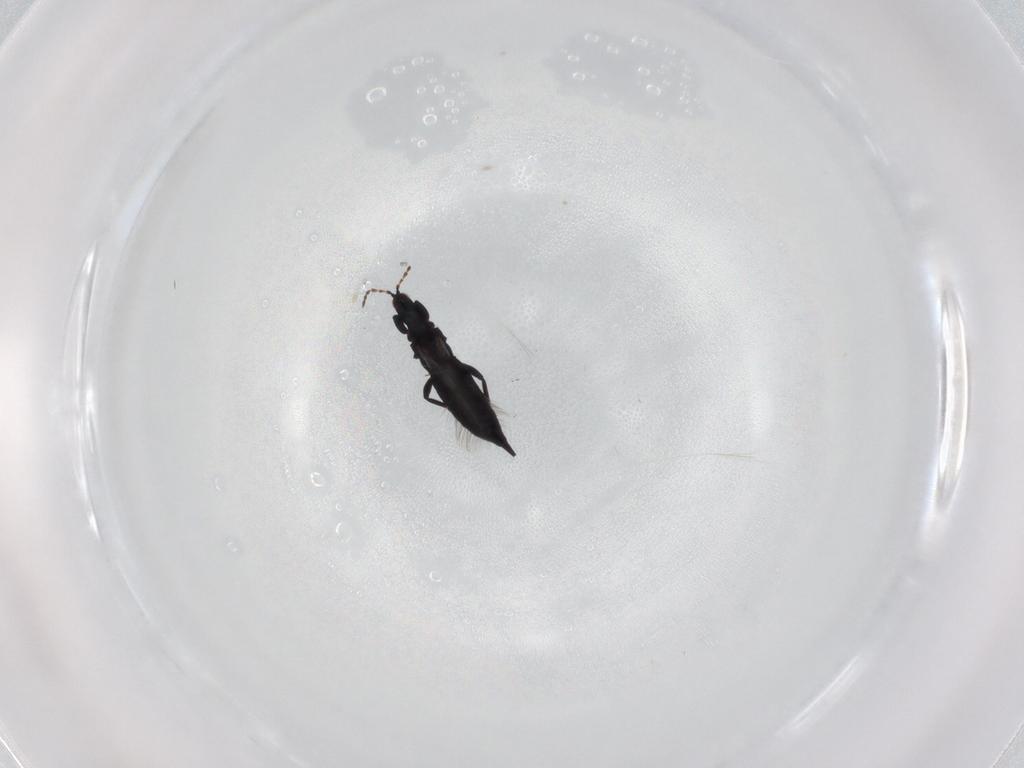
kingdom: Animalia
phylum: Arthropoda
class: Insecta
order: Thysanoptera
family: Phlaeothripidae
